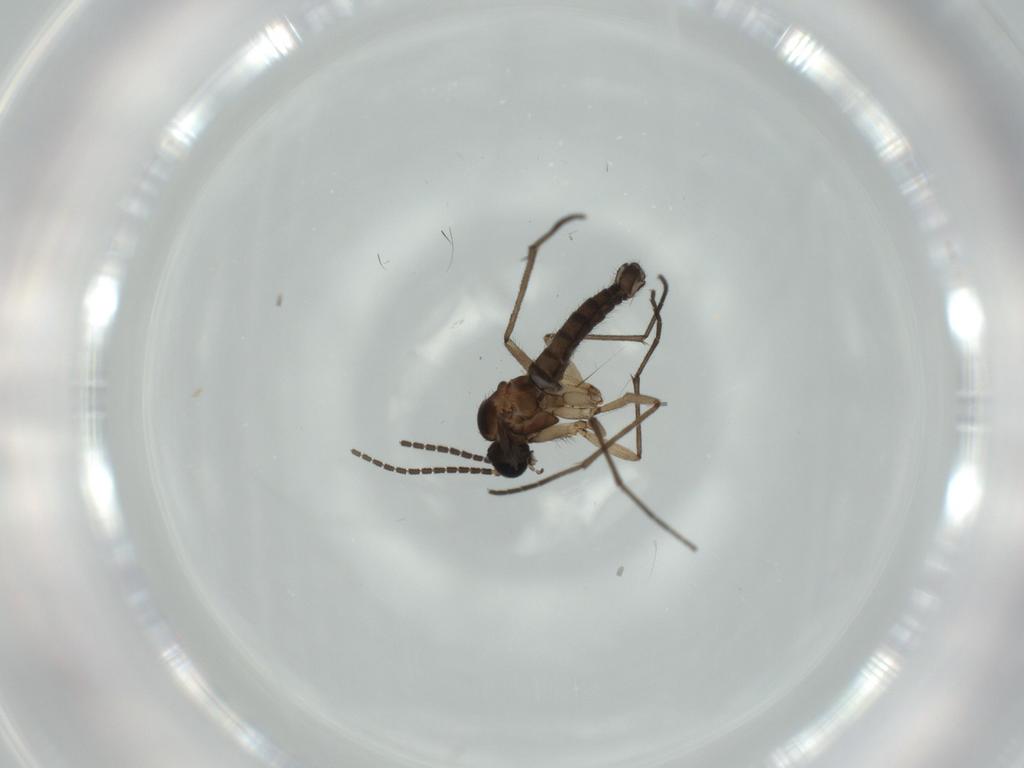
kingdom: Animalia
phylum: Arthropoda
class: Insecta
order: Diptera
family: Sciaridae
